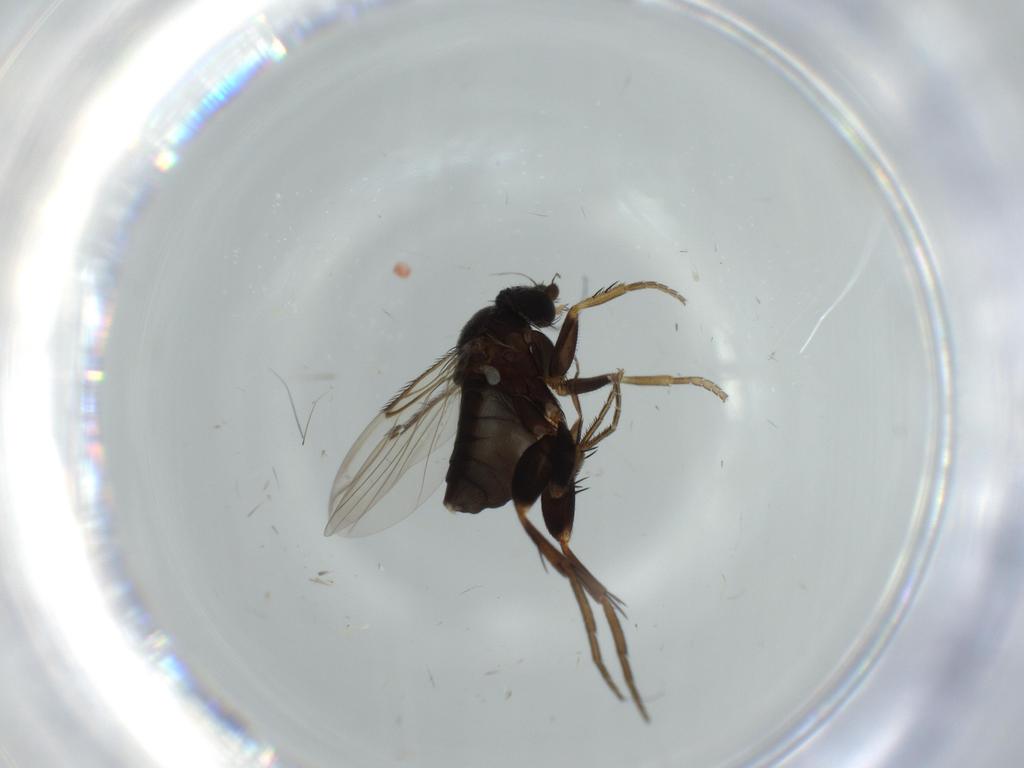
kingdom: Animalia
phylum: Arthropoda
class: Insecta
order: Diptera
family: Phoridae
